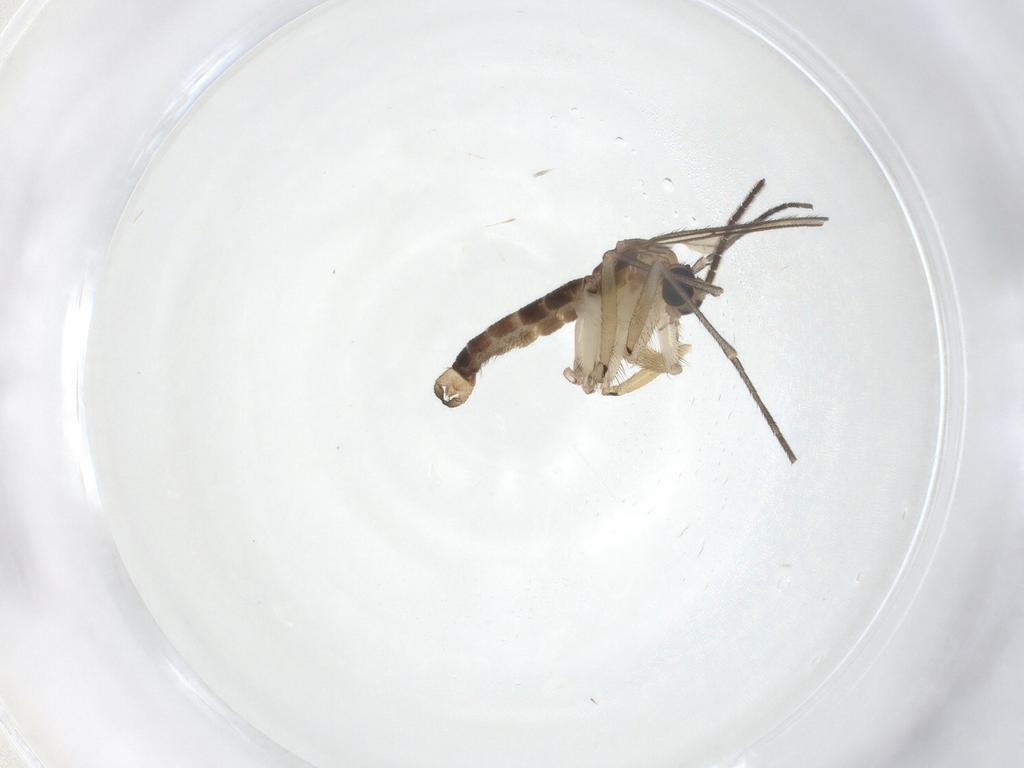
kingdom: Animalia
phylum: Arthropoda
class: Insecta
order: Diptera
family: Sciaridae
